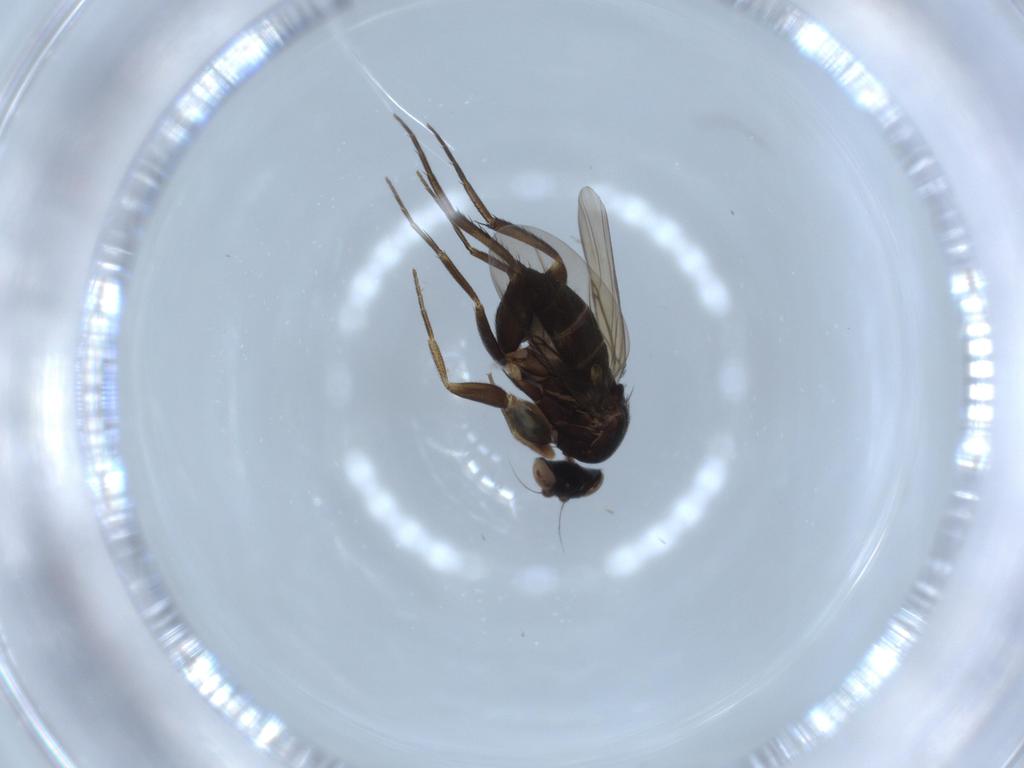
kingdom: Animalia
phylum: Arthropoda
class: Insecta
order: Diptera
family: Phoridae
